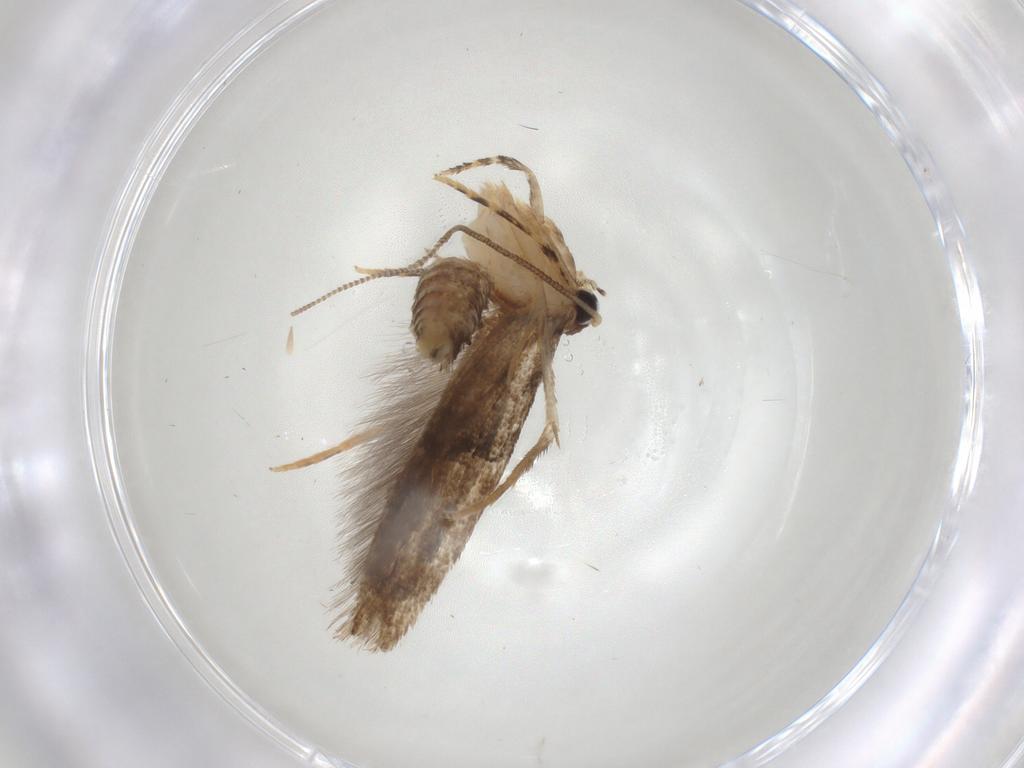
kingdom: Animalia
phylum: Arthropoda
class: Insecta
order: Lepidoptera
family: Tineidae
